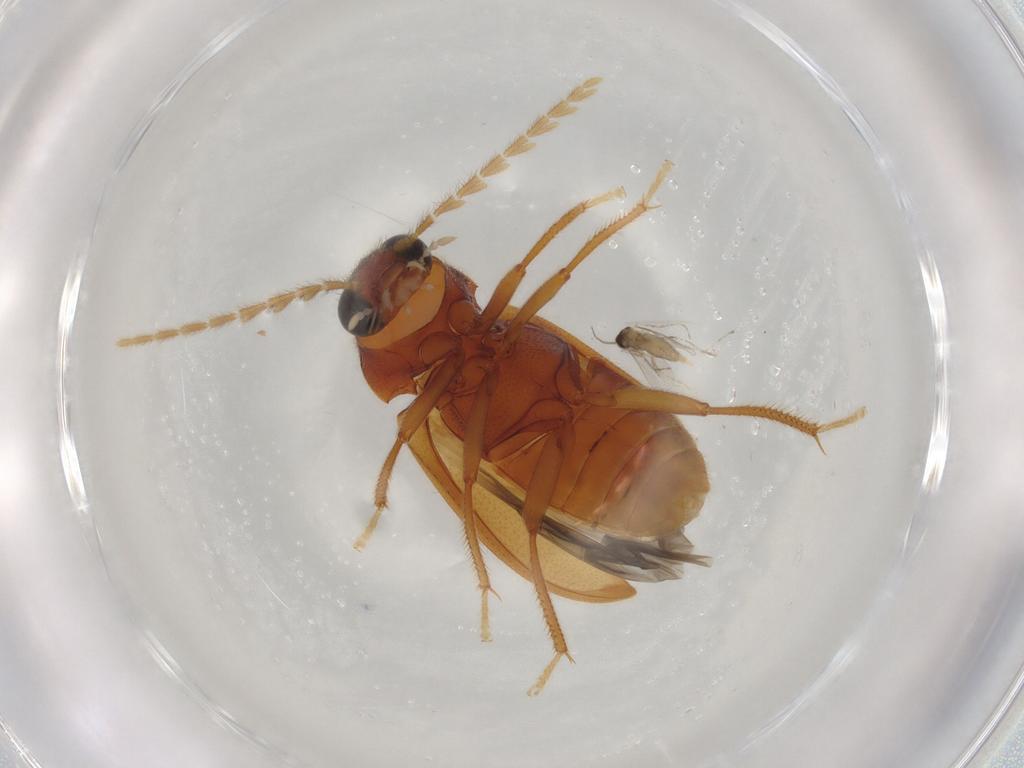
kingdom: Animalia
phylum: Arthropoda
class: Insecta
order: Coleoptera
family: Ptilodactylidae
